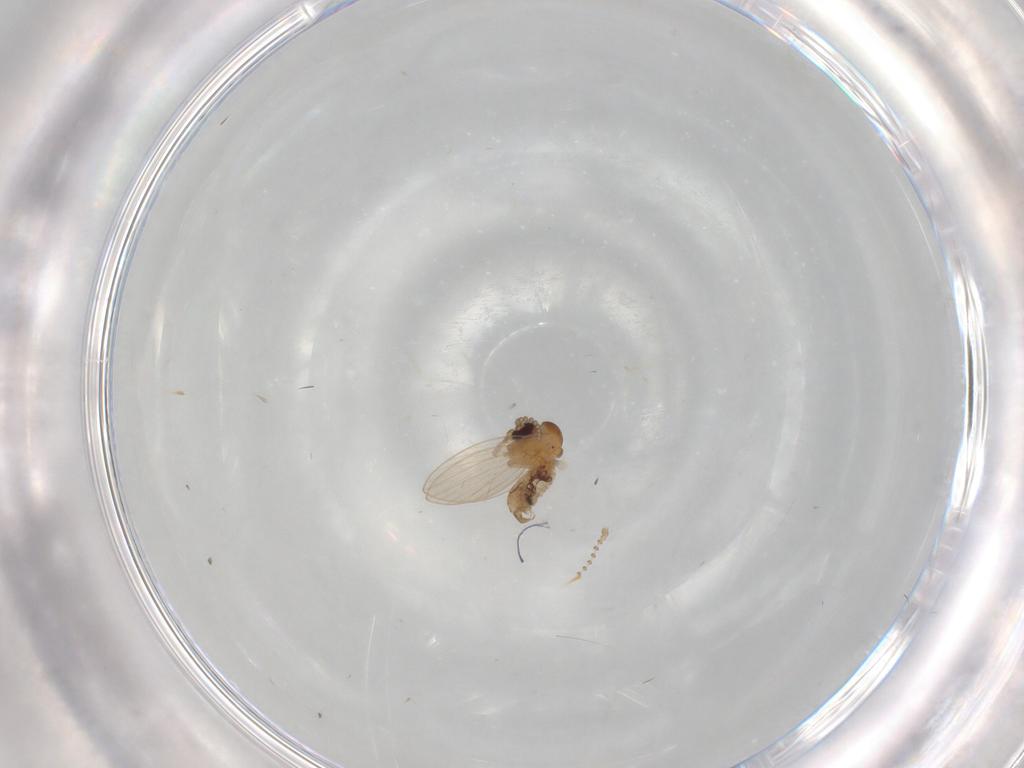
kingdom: Animalia
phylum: Arthropoda
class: Insecta
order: Diptera
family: Psychodidae
